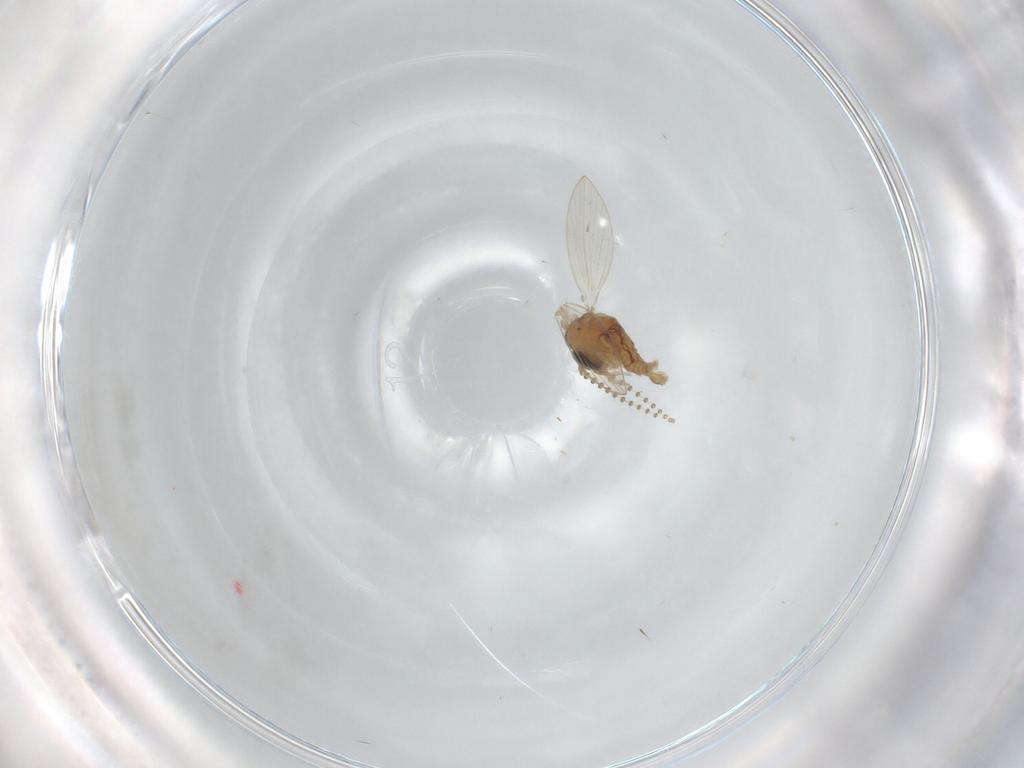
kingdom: Animalia
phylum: Arthropoda
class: Insecta
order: Diptera
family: Psychodidae
